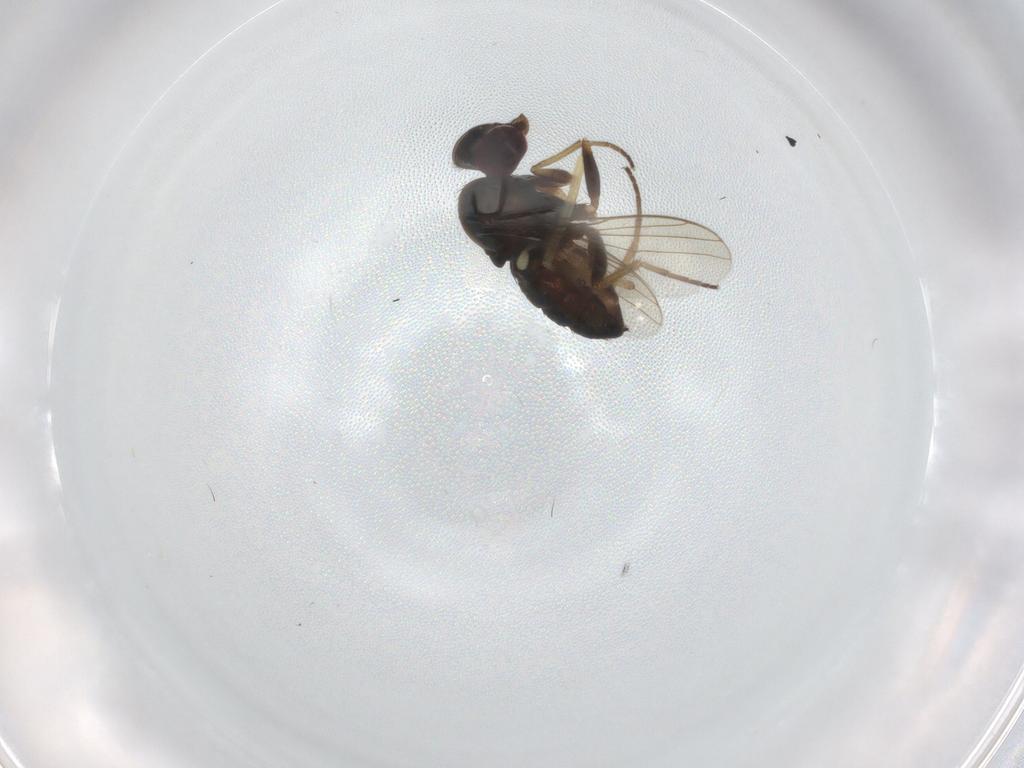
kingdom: Animalia
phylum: Arthropoda
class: Insecta
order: Diptera
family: Dolichopodidae
